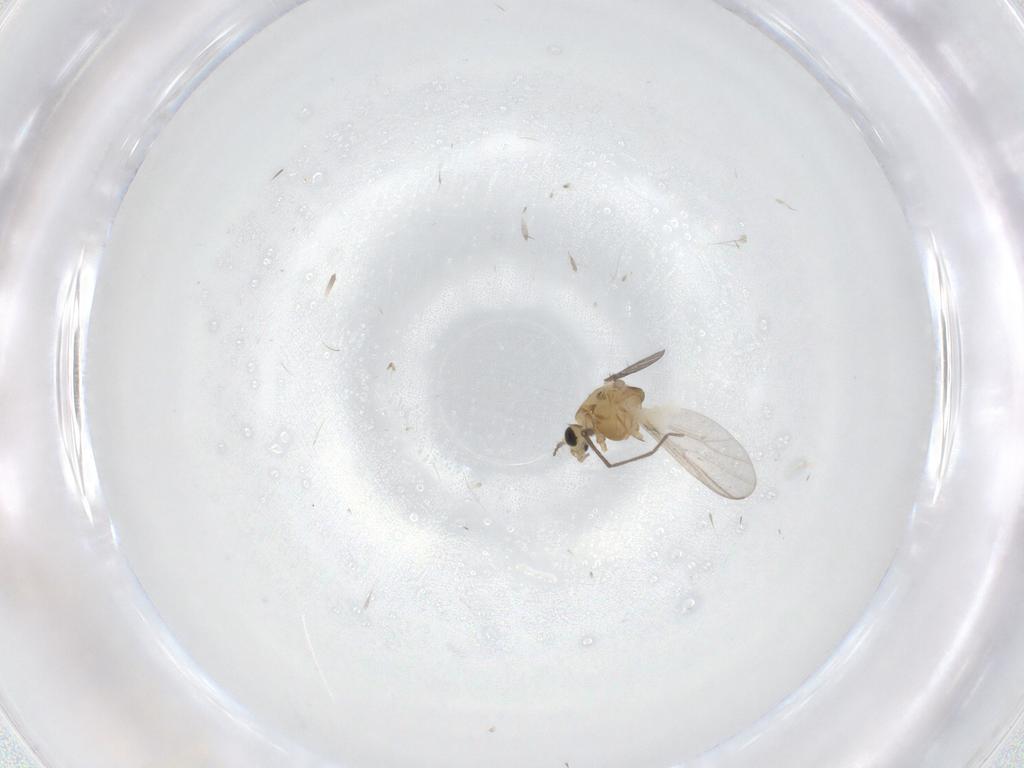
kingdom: Animalia
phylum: Arthropoda
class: Insecta
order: Diptera
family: Chironomidae
